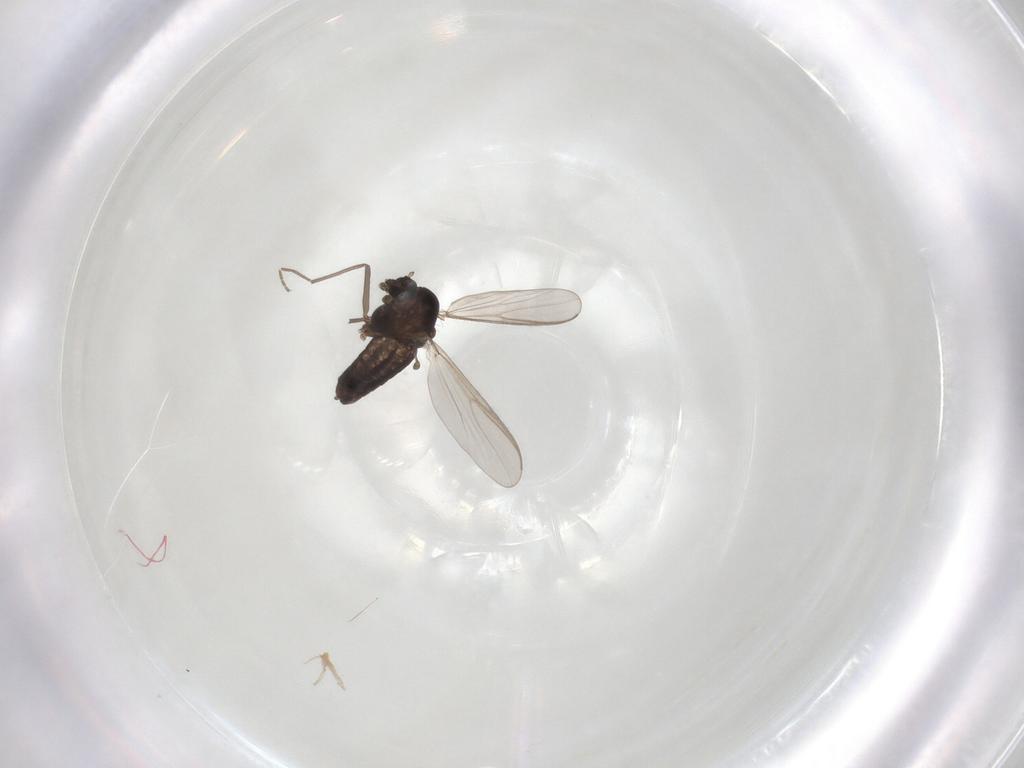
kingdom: Animalia
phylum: Arthropoda
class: Insecta
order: Diptera
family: Chironomidae
